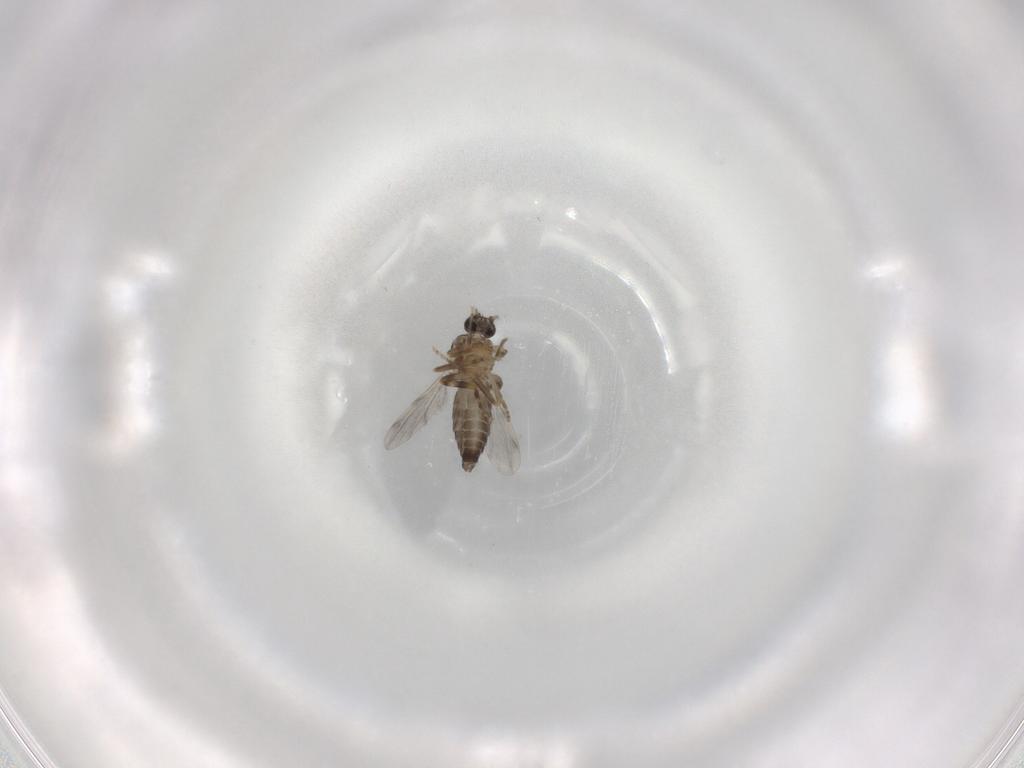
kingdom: Animalia
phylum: Arthropoda
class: Insecta
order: Diptera
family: Ceratopogonidae
